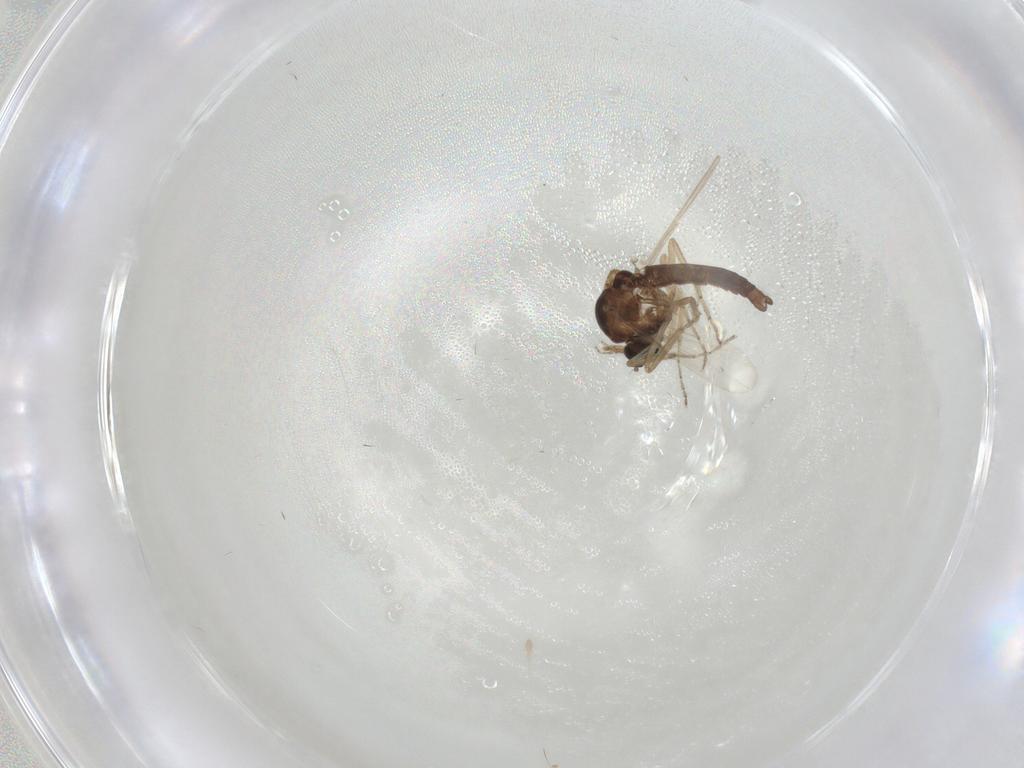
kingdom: Animalia
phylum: Arthropoda
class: Insecta
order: Diptera
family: Ceratopogonidae
